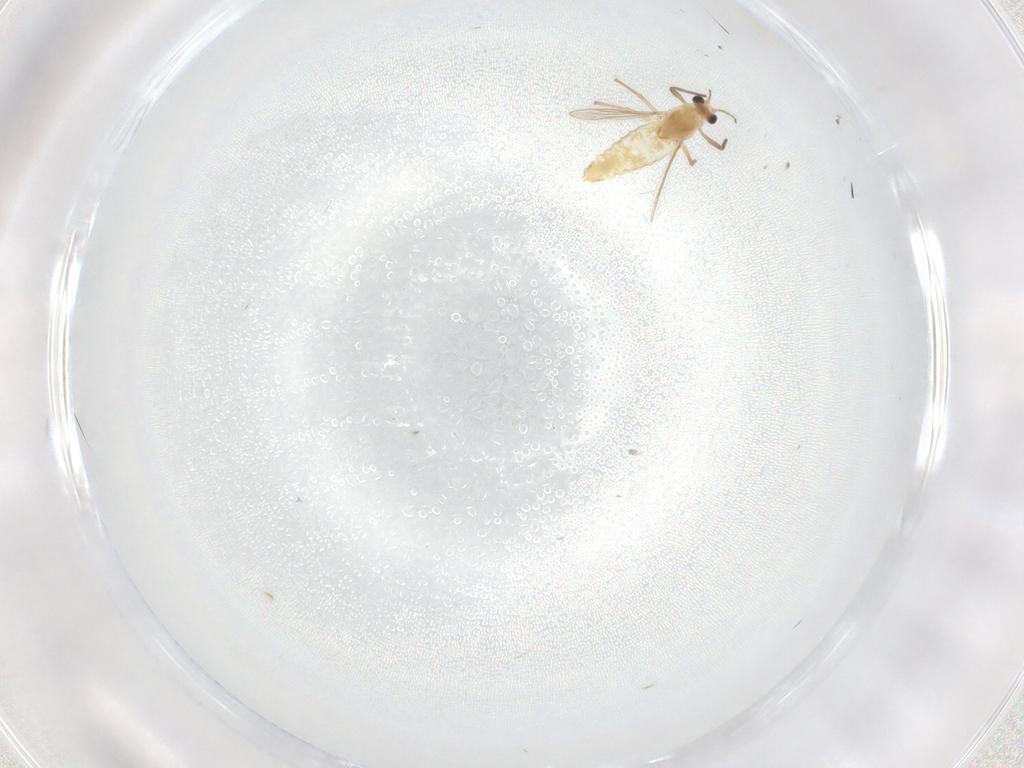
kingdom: Animalia
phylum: Arthropoda
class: Insecta
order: Diptera
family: Chironomidae
